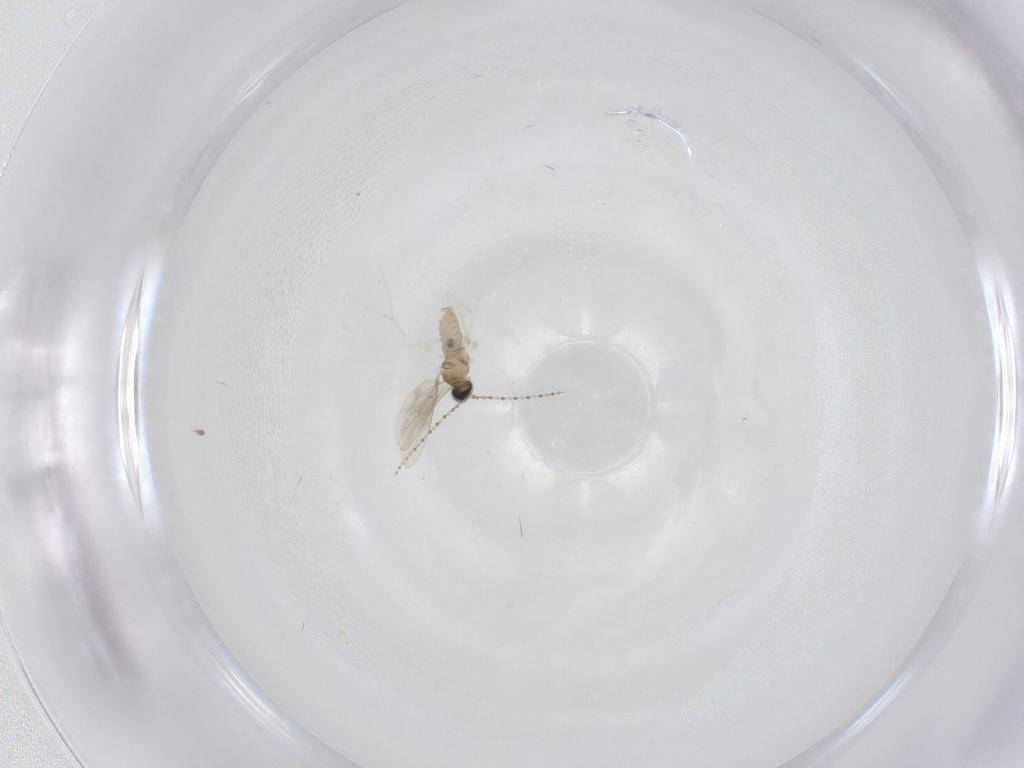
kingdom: Animalia
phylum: Arthropoda
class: Insecta
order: Diptera
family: Cecidomyiidae
